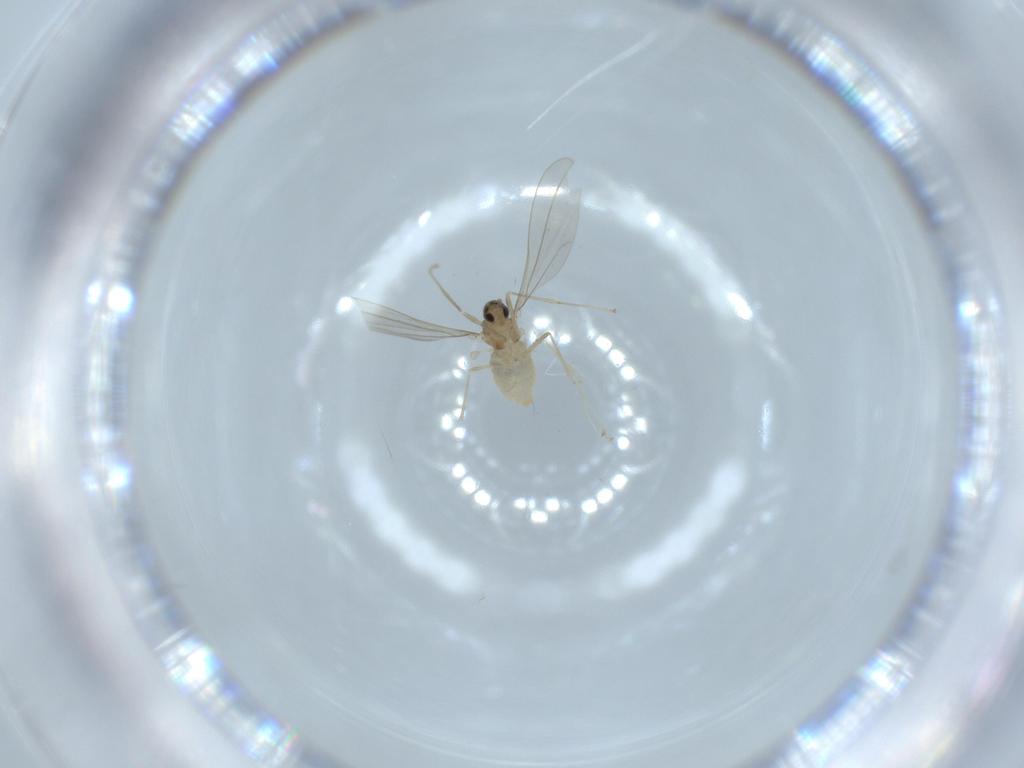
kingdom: Animalia
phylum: Arthropoda
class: Insecta
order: Diptera
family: Cecidomyiidae
